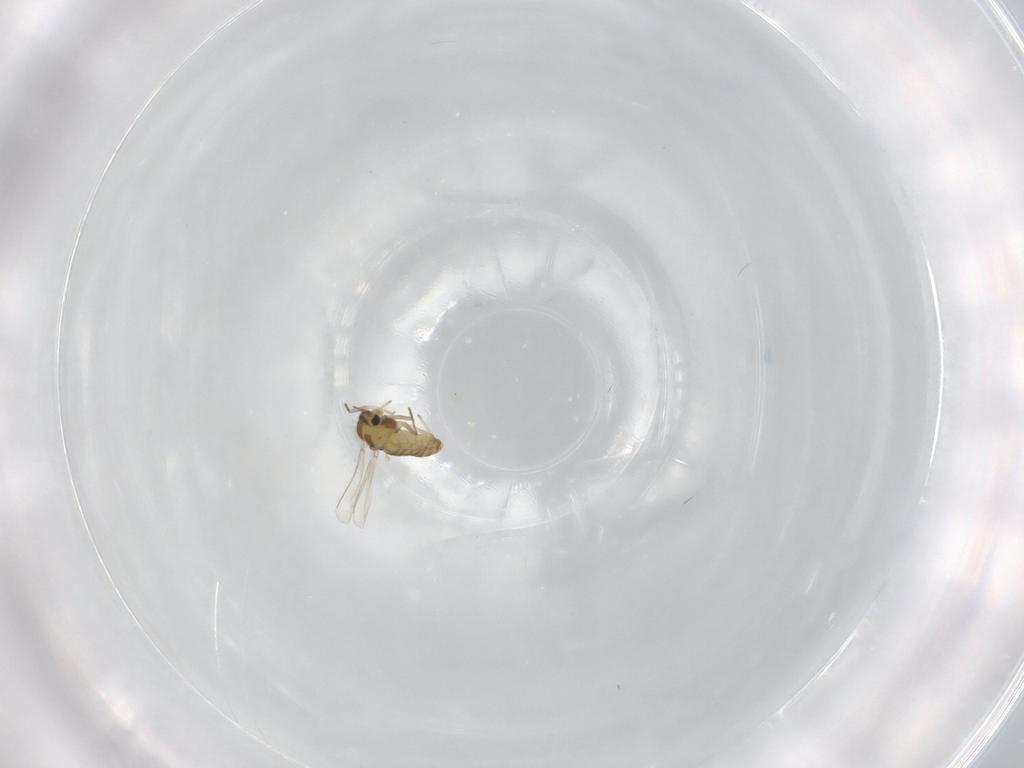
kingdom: Animalia
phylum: Arthropoda
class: Insecta
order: Diptera
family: Chironomidae
